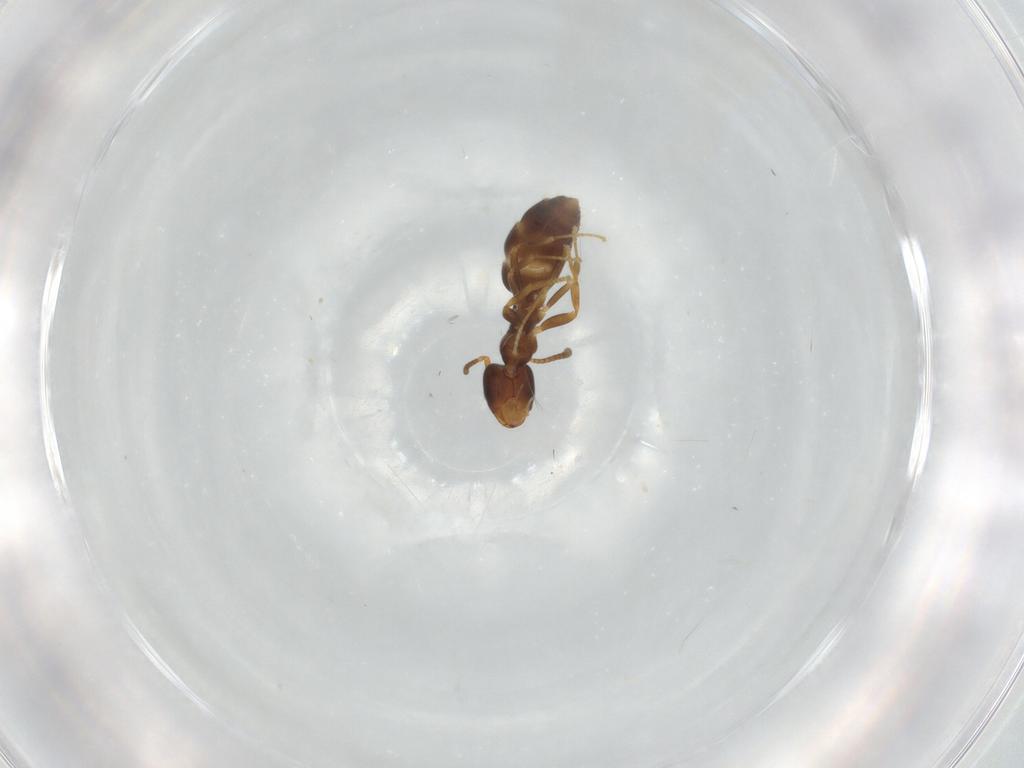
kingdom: Animalia
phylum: Arthropoda
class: Insecta
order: Hymenoptera
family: Formicidae
